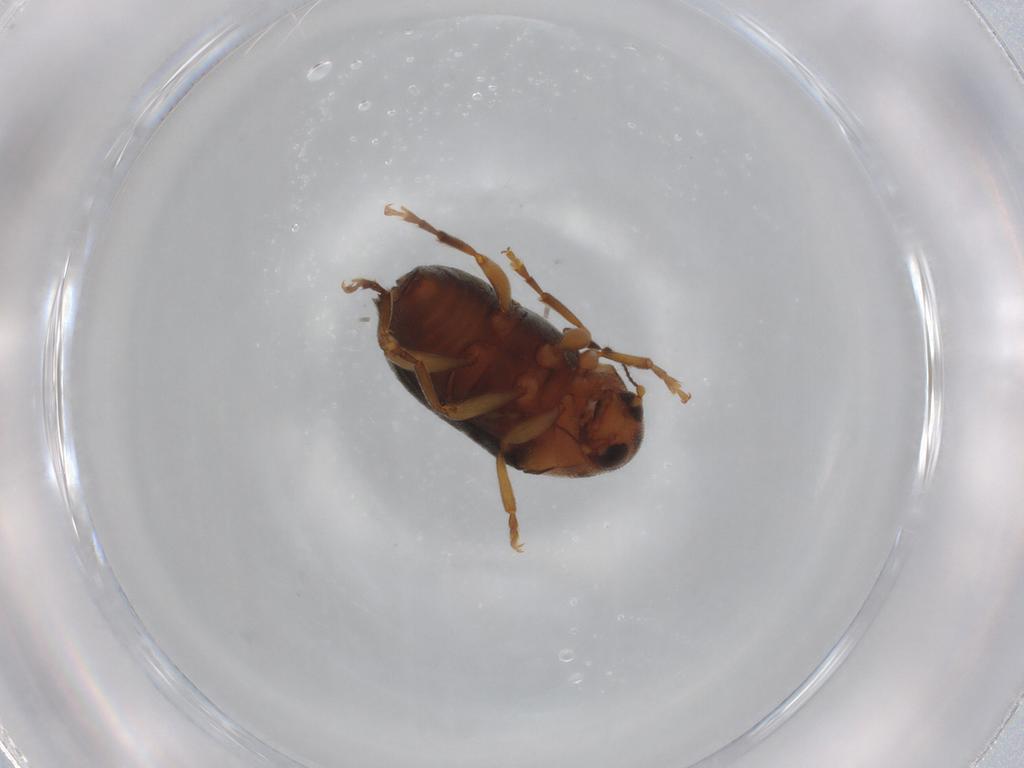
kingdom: Animalia
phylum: Arthropoda
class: Insecta
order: Coleoptera
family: Anthribidae
